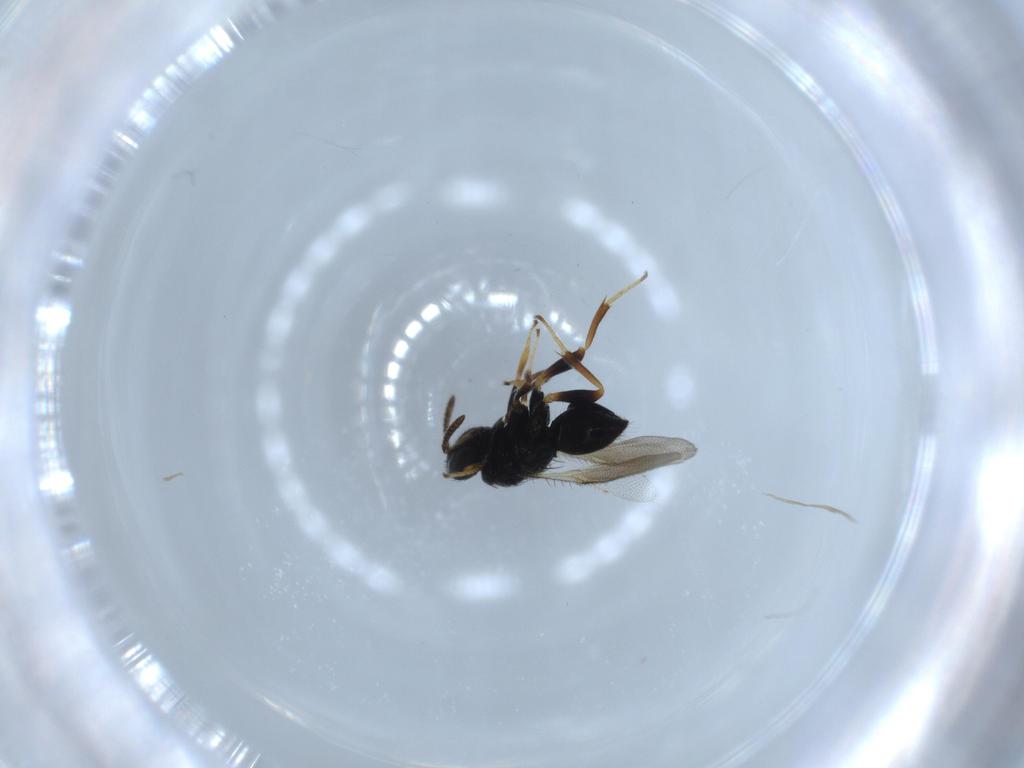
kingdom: Animalia
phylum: Arthropoda
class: Insecta
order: Hymenoptera
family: Pteromalidae
